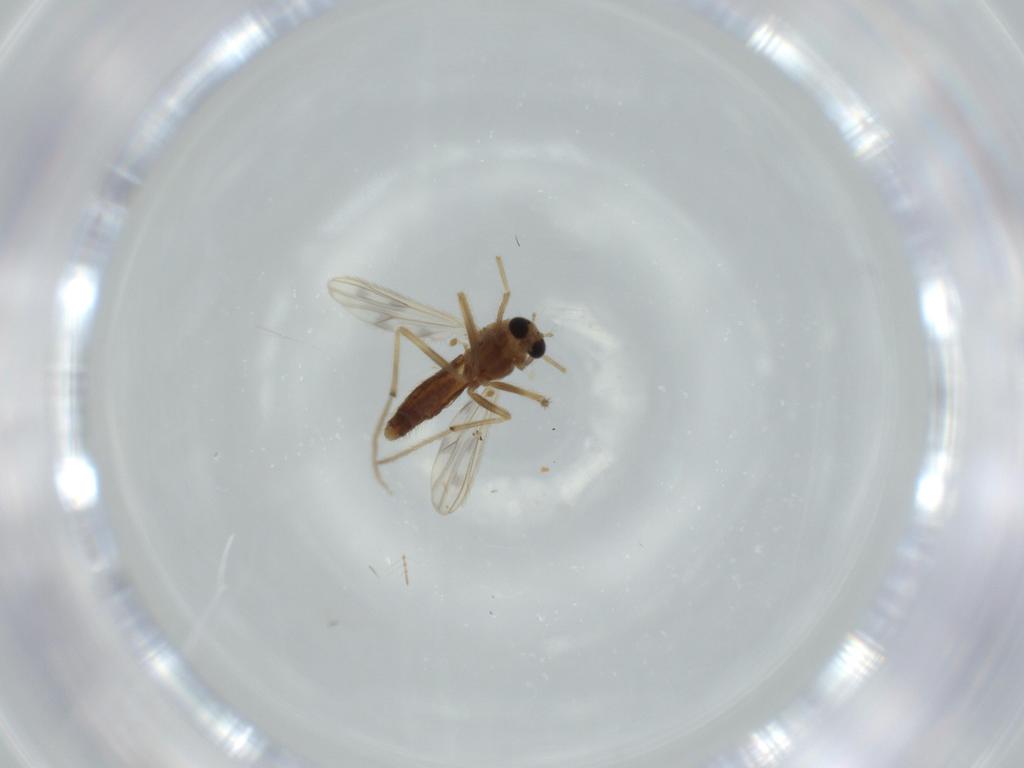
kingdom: Animalia
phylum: Arthropoda
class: Insecta
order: Diptera
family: Chironomidae
